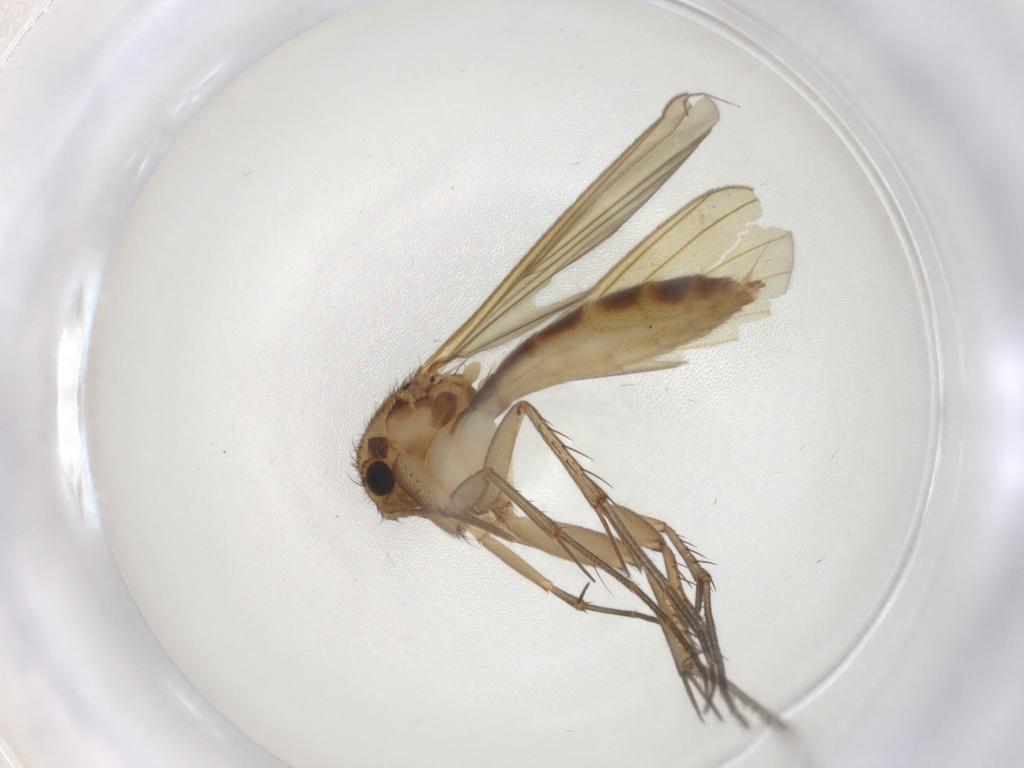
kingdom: Animalia
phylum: Arthropoda
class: Insecta
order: Diptera
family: Mycetophilidae
